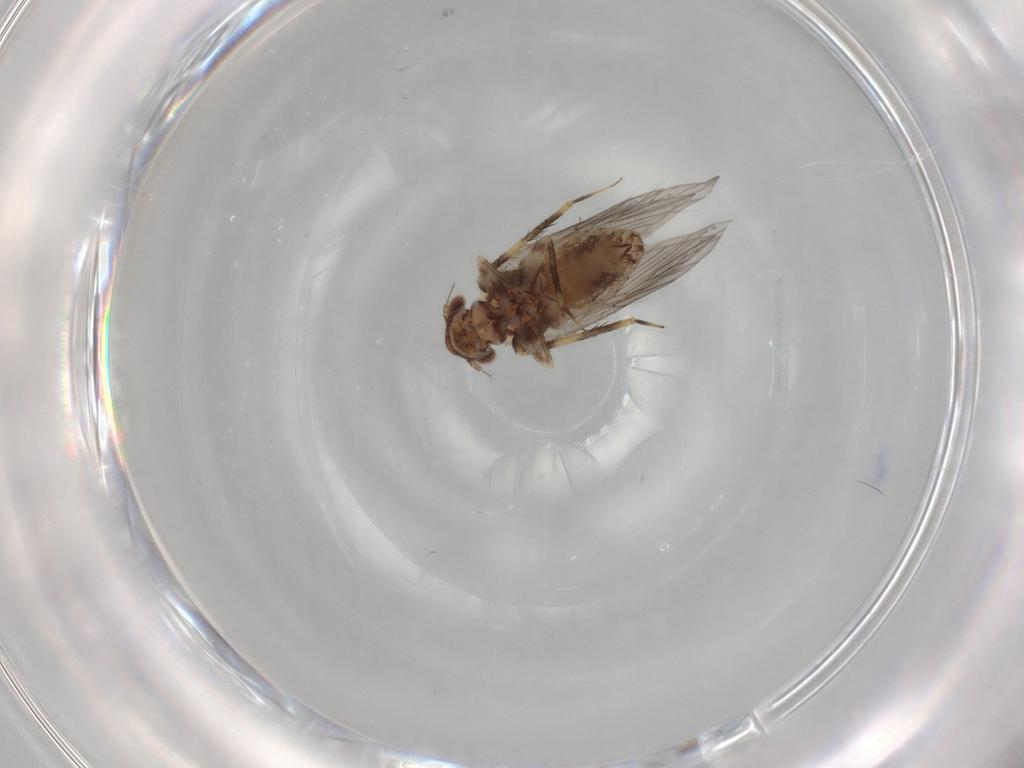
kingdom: Animalia
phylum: Arthropoda
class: Insecta
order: Psocodea
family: Lepidopsocidae
